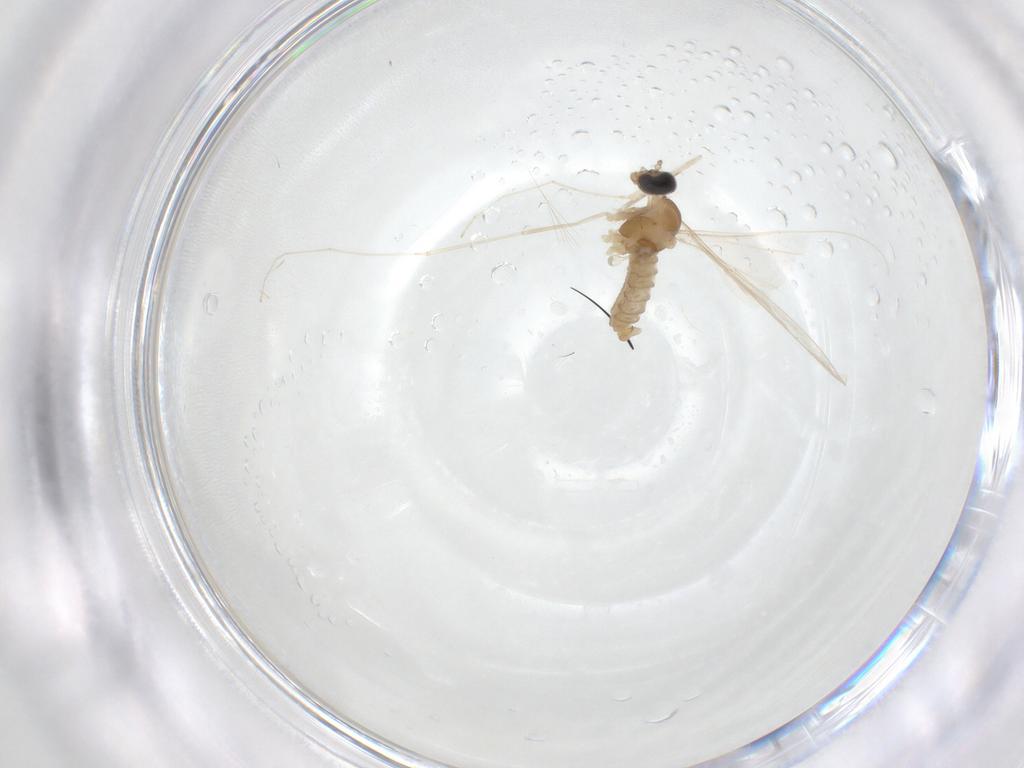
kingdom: Animalia
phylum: Arthropoda
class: Insecta
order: Diptera
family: Cecidomyiidae
